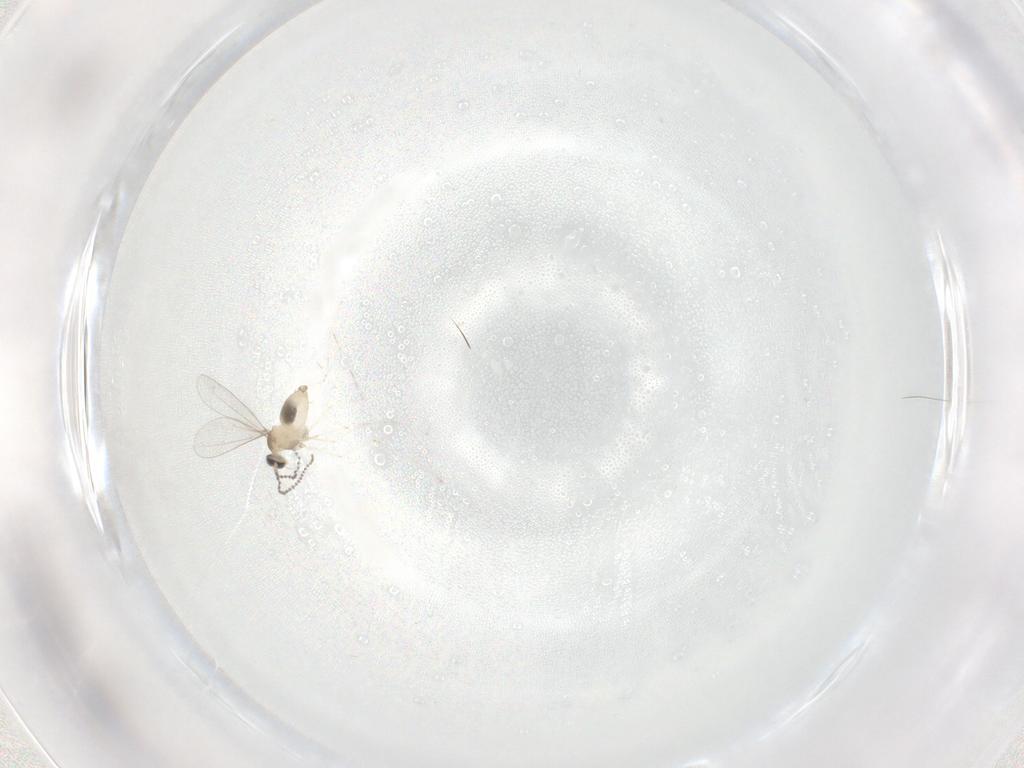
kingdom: Animalia
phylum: Arthropoda
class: Insecta
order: Diptera
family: Cecidomyiidae
